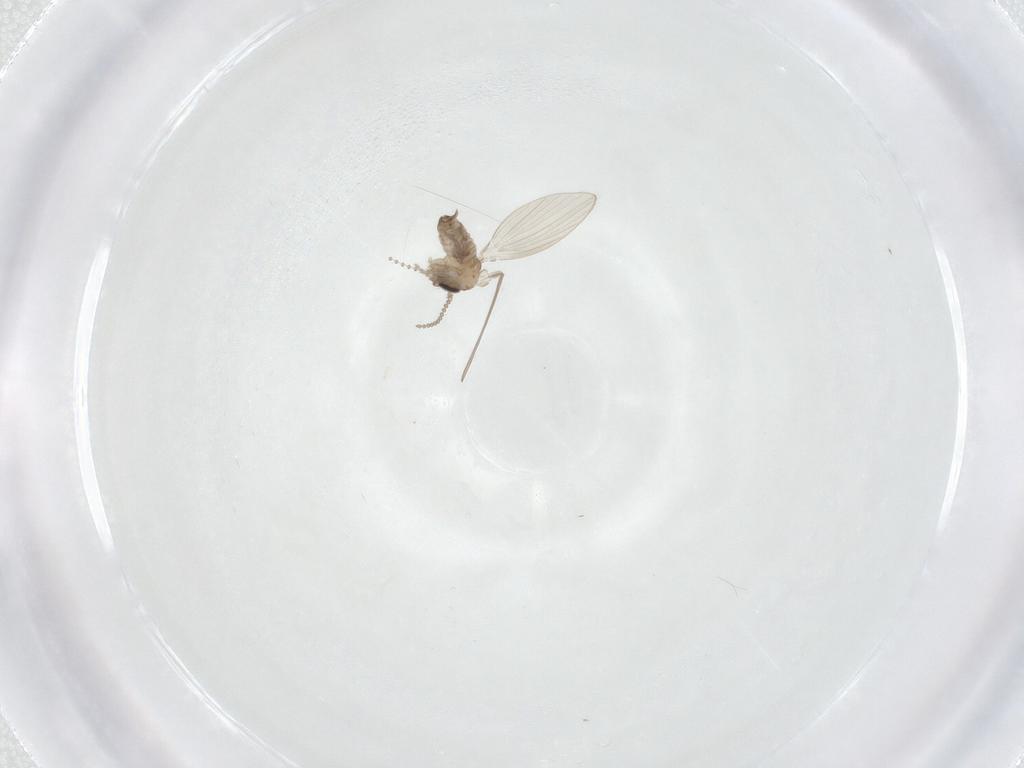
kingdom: Animalia
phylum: Arthropoda
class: Insecta
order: Diptera
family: Psychodidae
